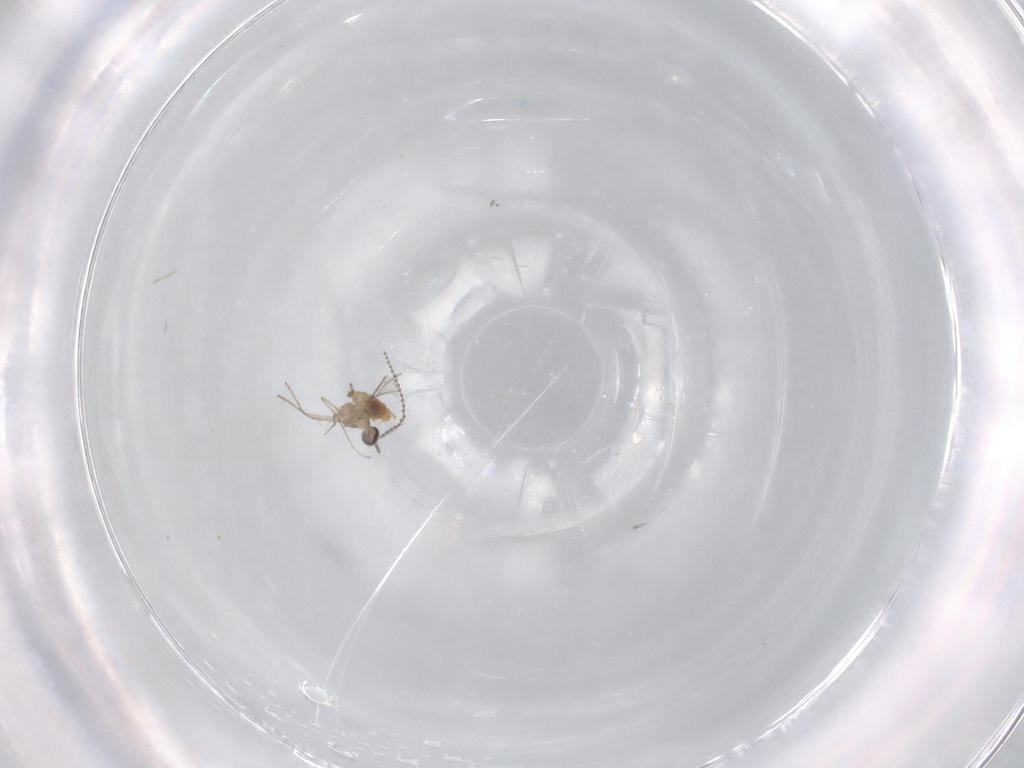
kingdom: Animalia
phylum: Arthropoda
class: Insecta
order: Diptera
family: Cecidomyiidae
